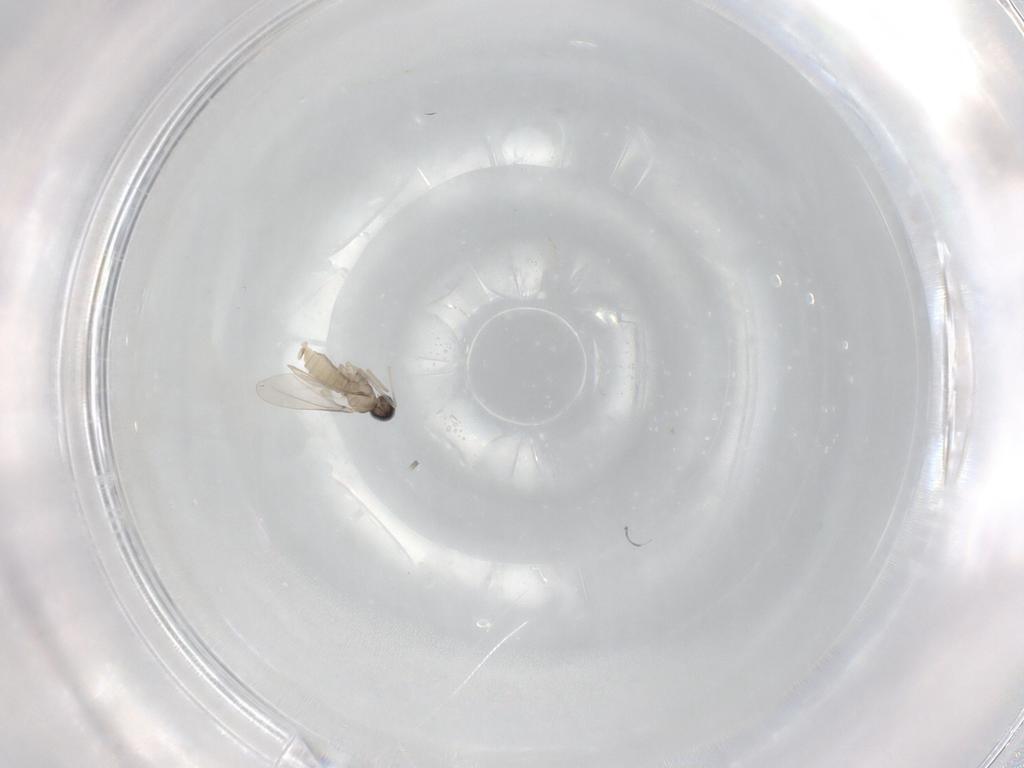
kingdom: Animalia
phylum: Arthropoda
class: Insecta
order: Diptera
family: Cecidomyiidae
